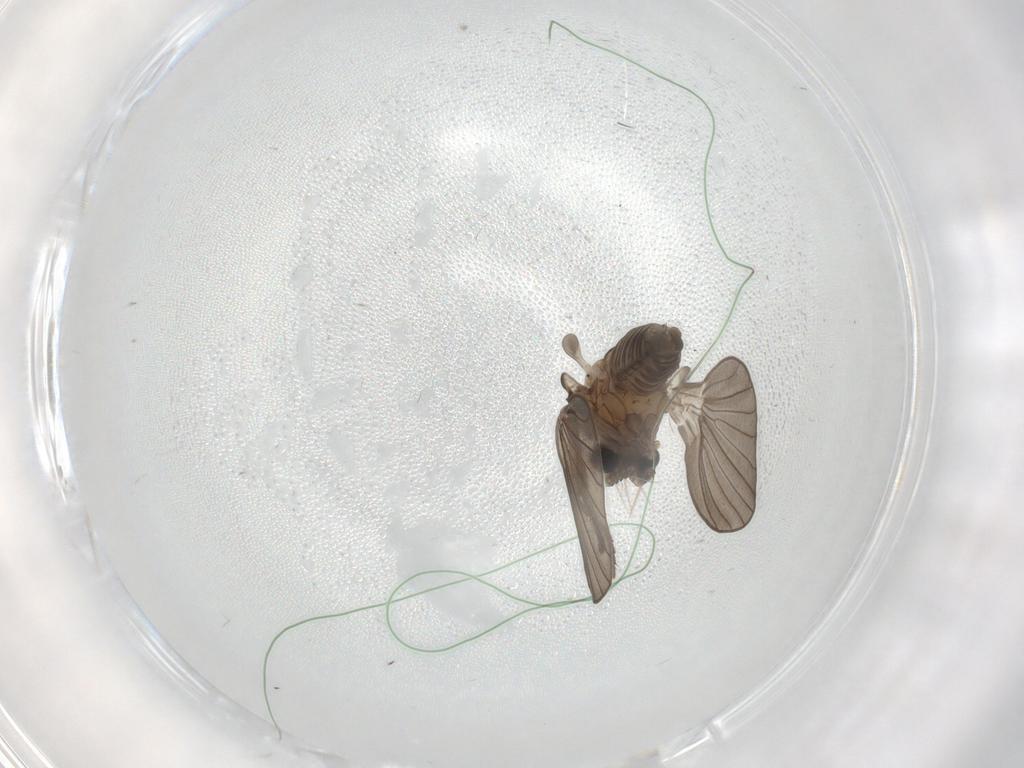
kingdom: Animalia
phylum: Arthropoda
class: Insecta
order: Diptera
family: Psychodidae
